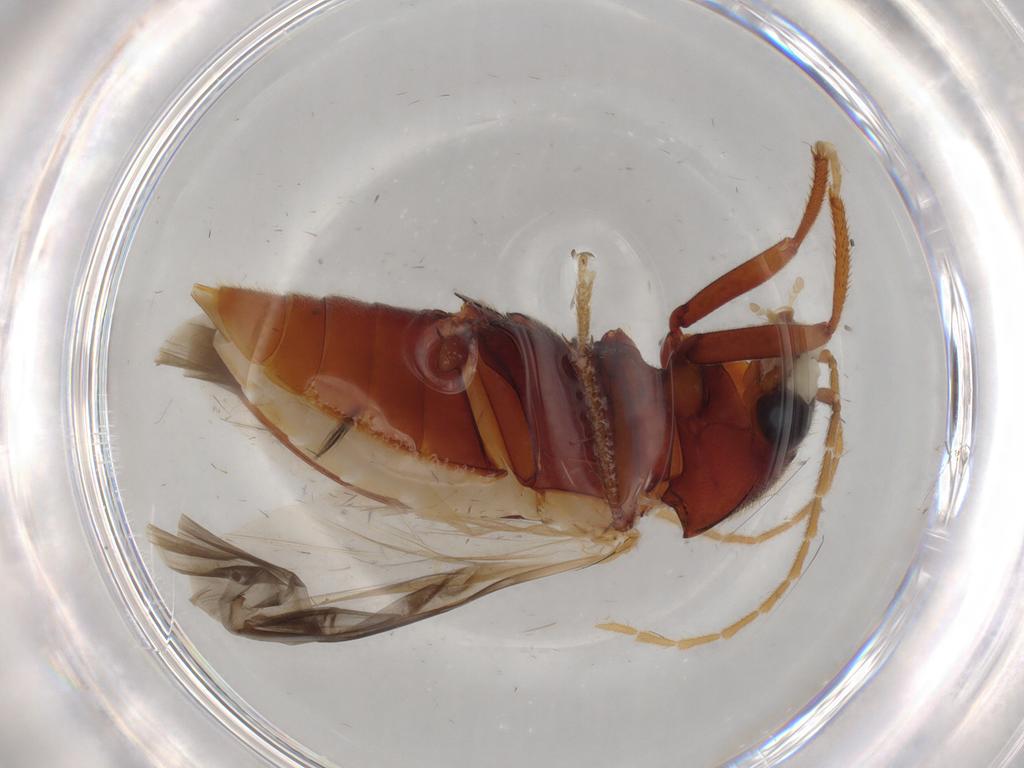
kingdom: Animalia
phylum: Arthropoda
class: Insecta
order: Coleoptera
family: Ptilodactylidae
